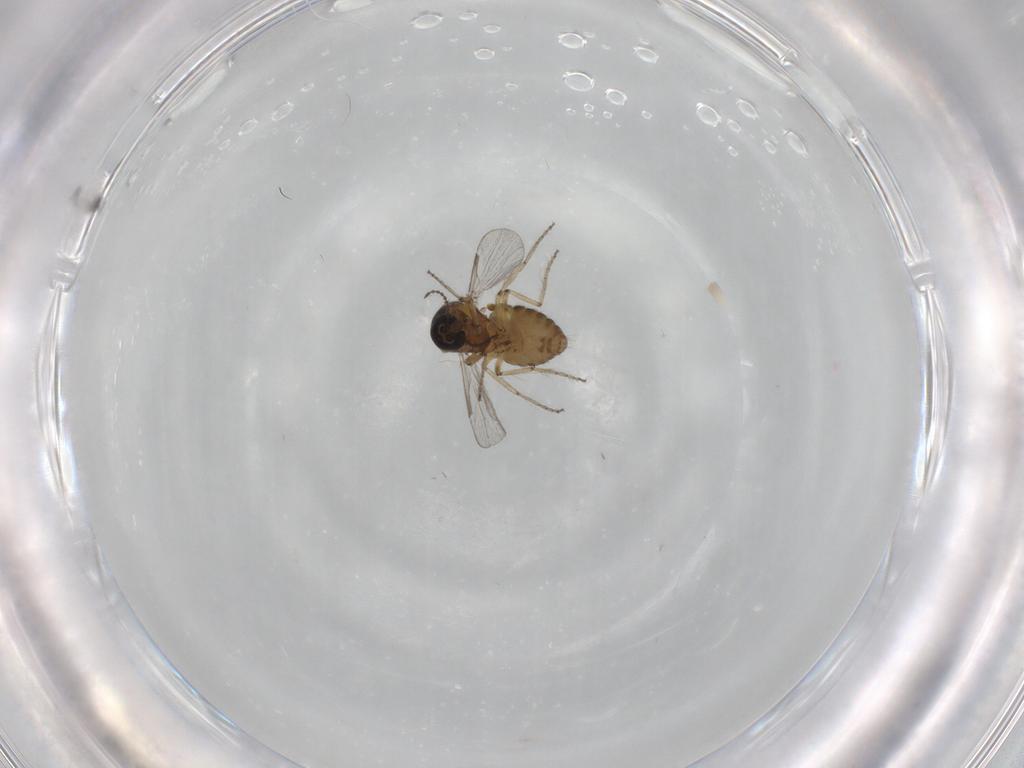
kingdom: Animalia
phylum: Arthropoda
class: Insecta
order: Diptera
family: Ceratopogonidae
